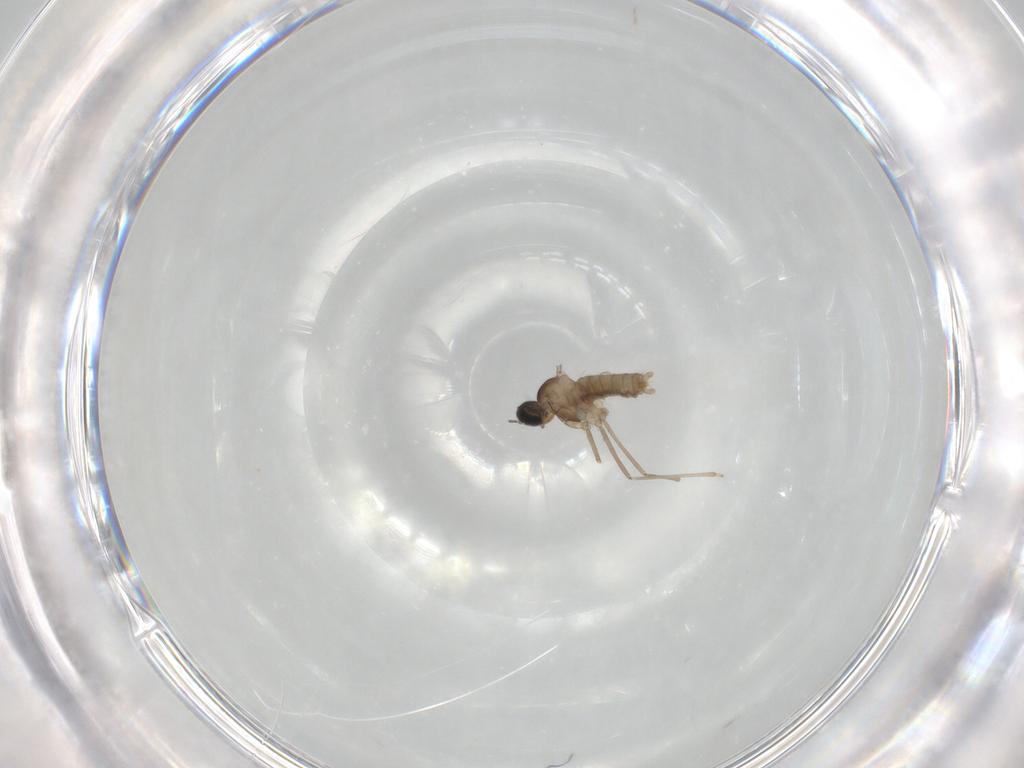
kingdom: Animalia
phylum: Arthropoda
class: Insecta
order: Diptera
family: Cecidomyiidae
